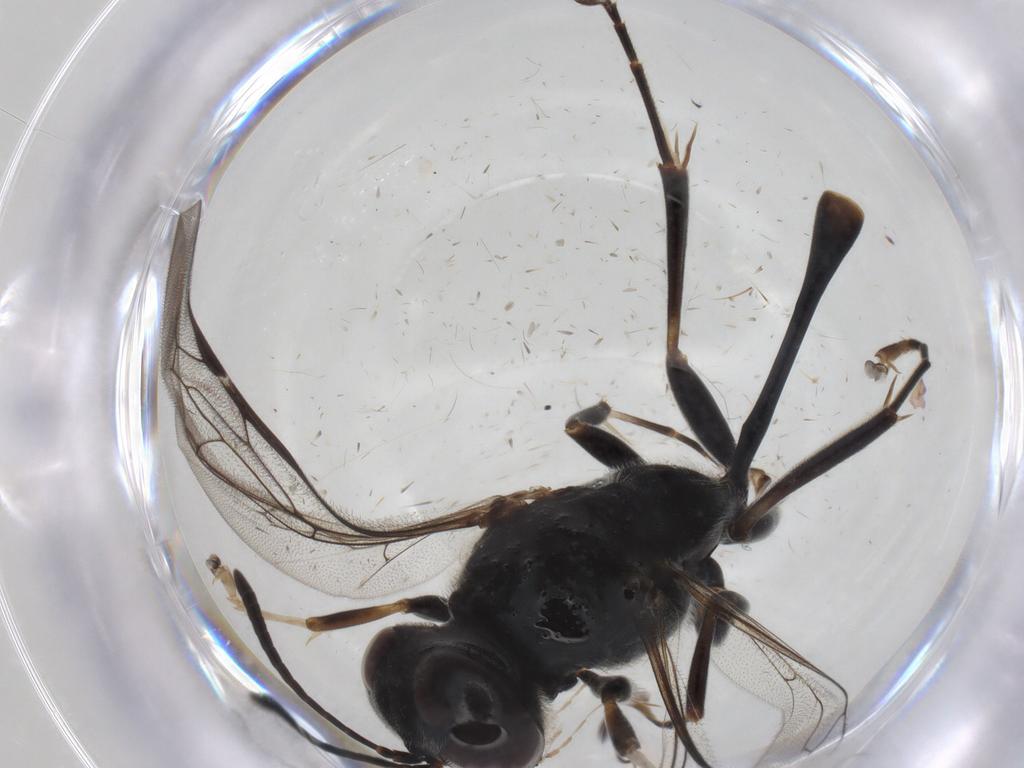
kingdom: Animalia
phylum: Arthropoda
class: Insecta
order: Hymenoptera
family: Crabronidae
